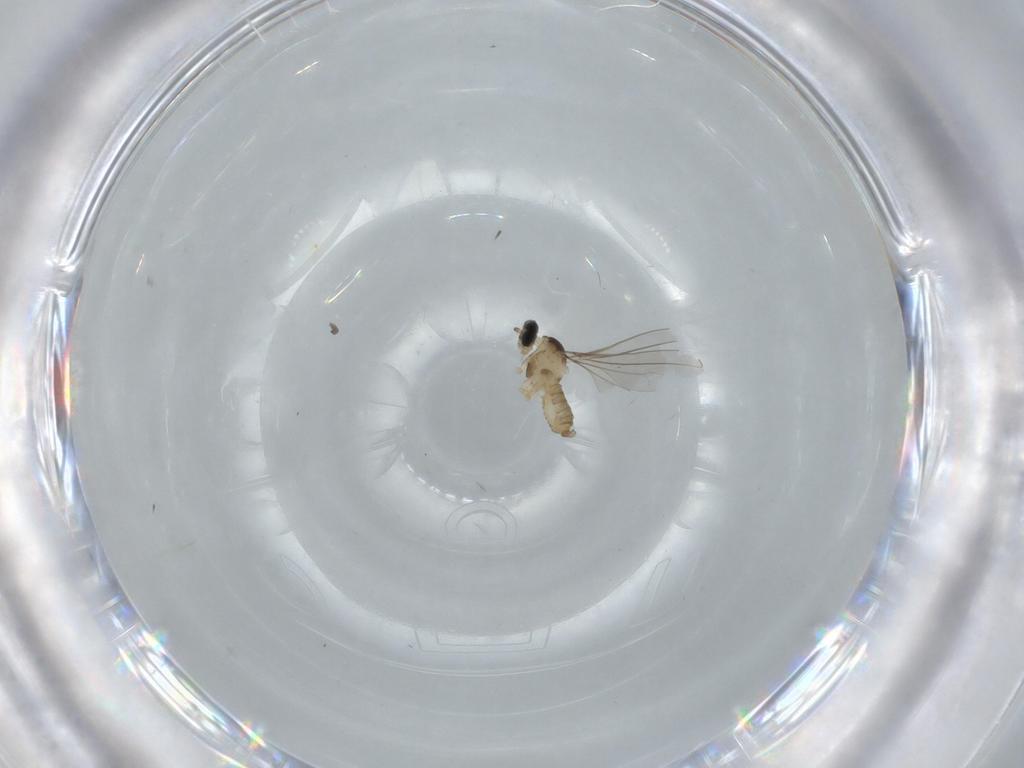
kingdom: Animalia
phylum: Arthropoda
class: Insecta
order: Diptera
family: Cecidomyiidae
